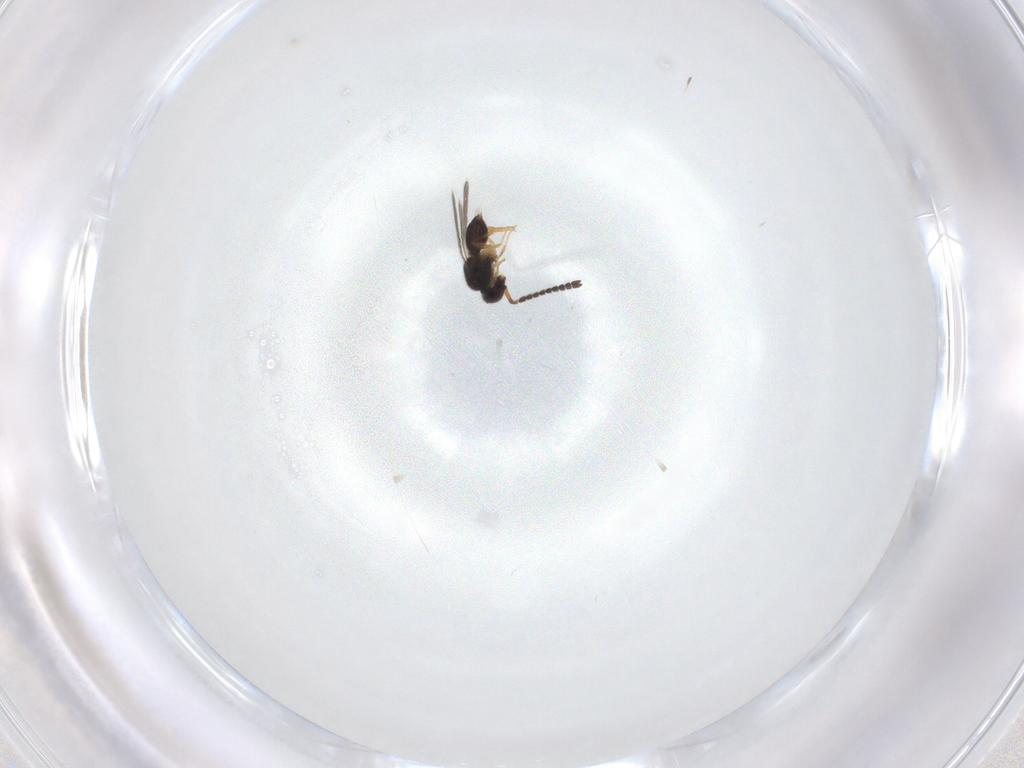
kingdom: Animalia
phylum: Arthropoda
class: Insecta
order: Hymenoptera
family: Ceraphronidae
